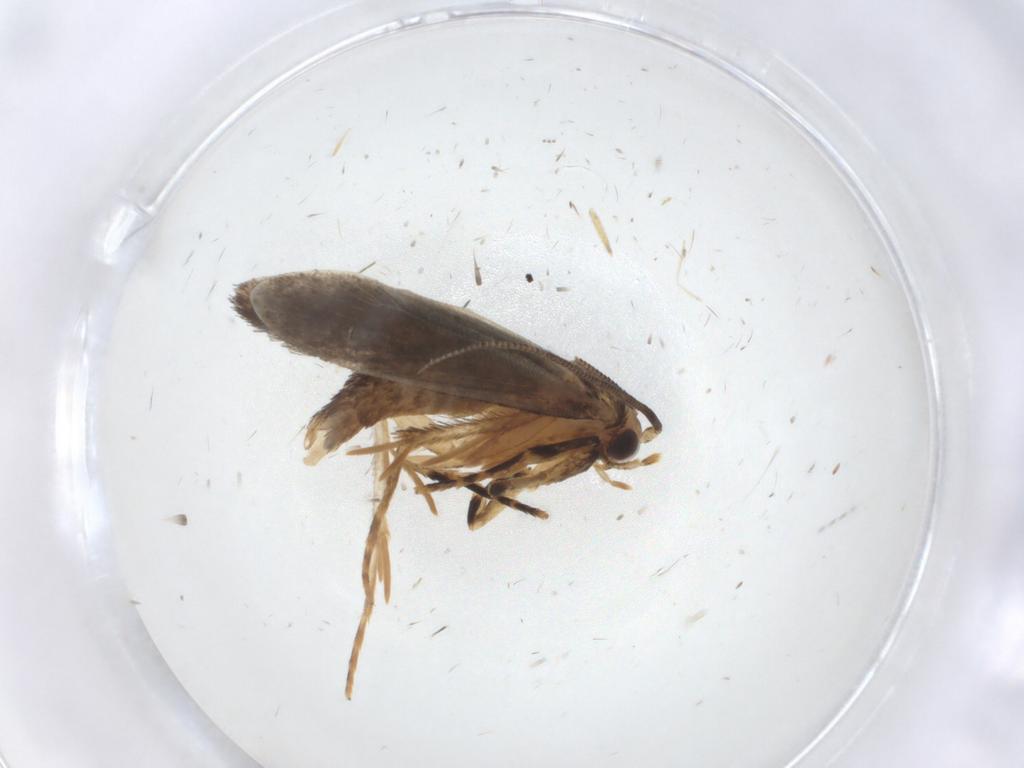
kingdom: Animalia
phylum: Arthropoda
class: Insecta
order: Lepidoptera
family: Tineidae
